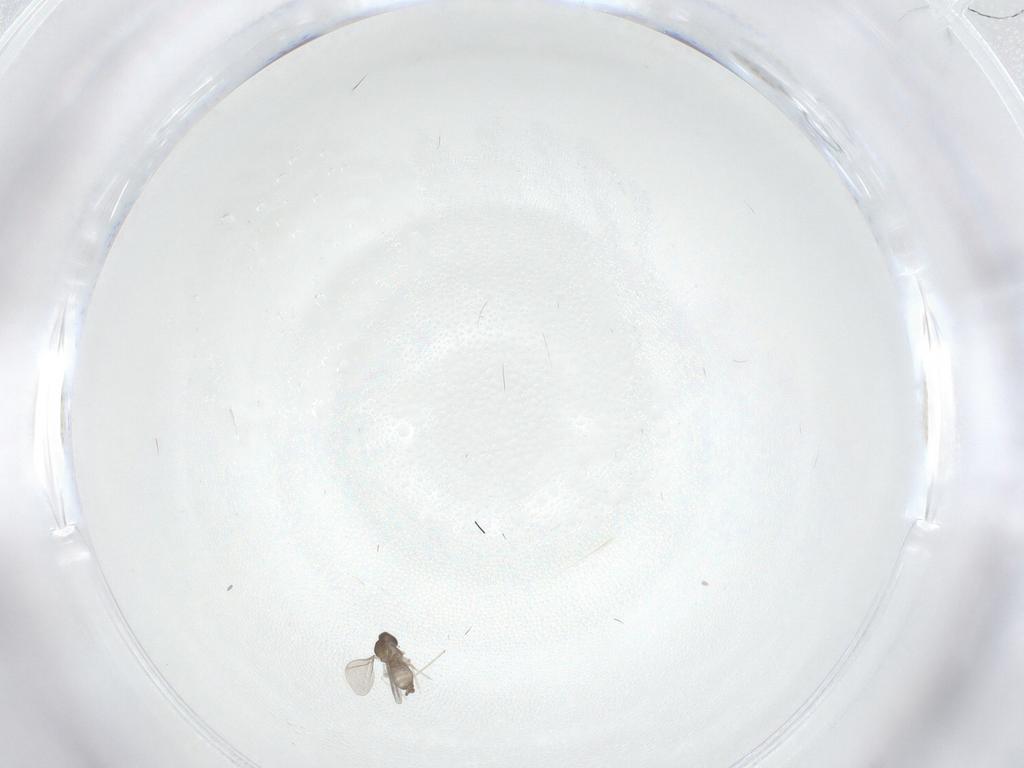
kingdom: Animalia
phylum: Arthropoda
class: Insecta
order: Diptera
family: Cecidomyiidae
